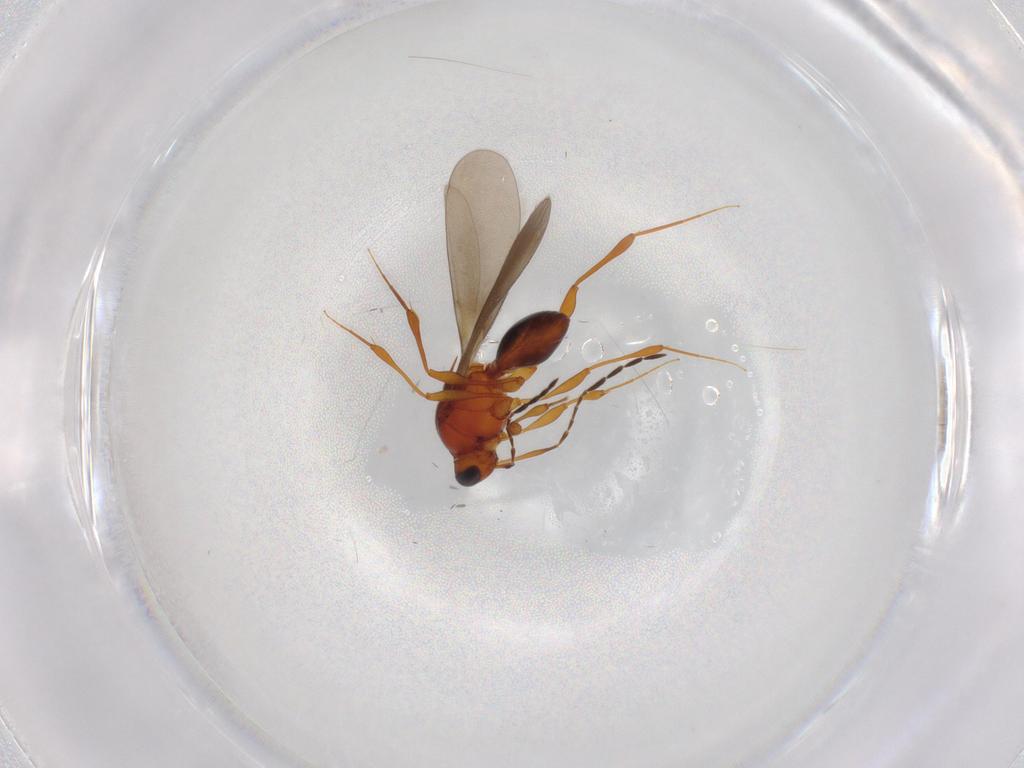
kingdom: Animalia
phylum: Arthropoda
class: Insecta
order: Hymenoptera
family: Platygastridae
